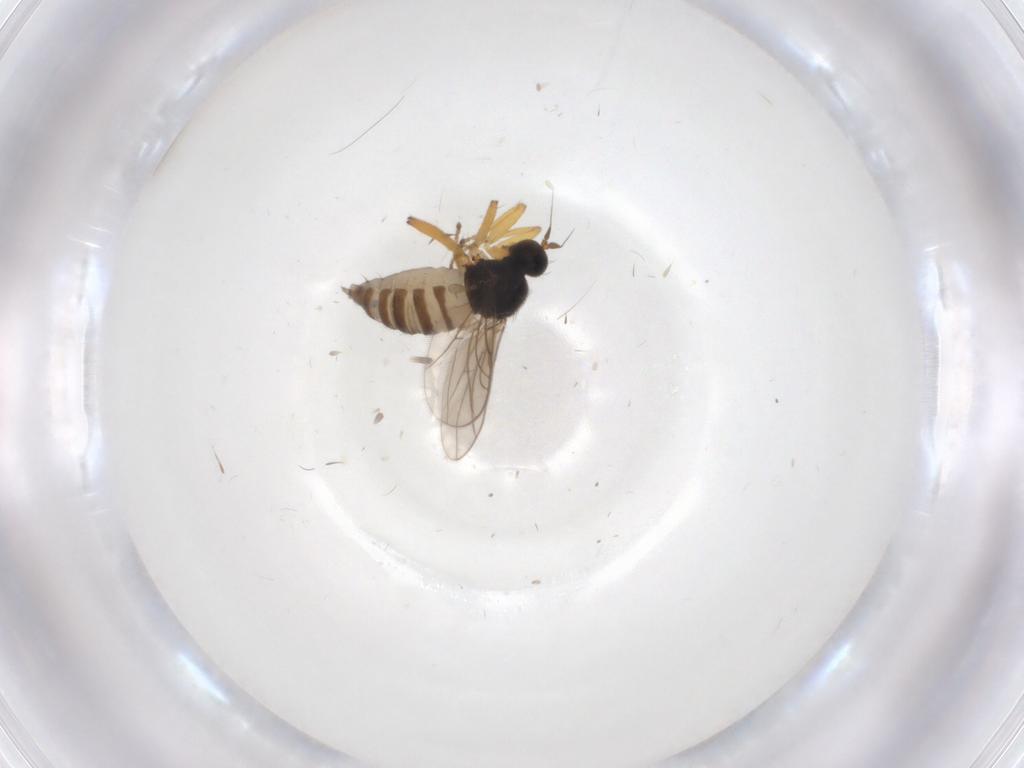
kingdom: Animalia
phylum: Arthropoda
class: Insecta
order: Diptera
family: Hybotidae
